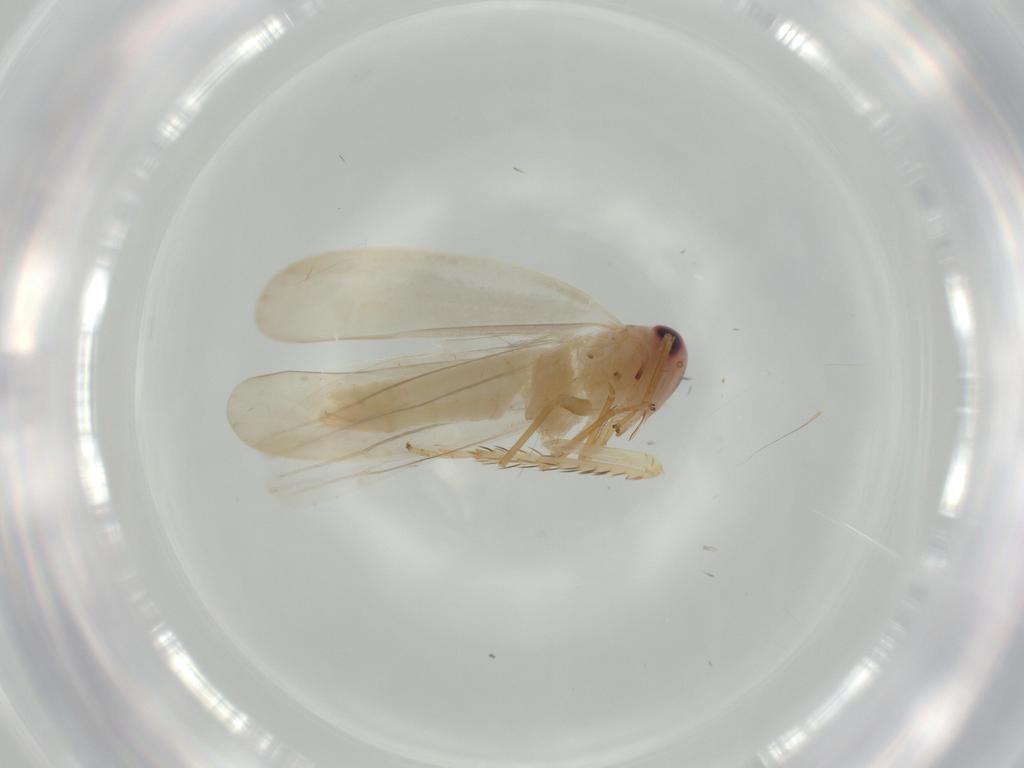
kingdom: Animalia
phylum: Arthropoda
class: Insecta
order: Hemiptera
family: Cicadellidae
